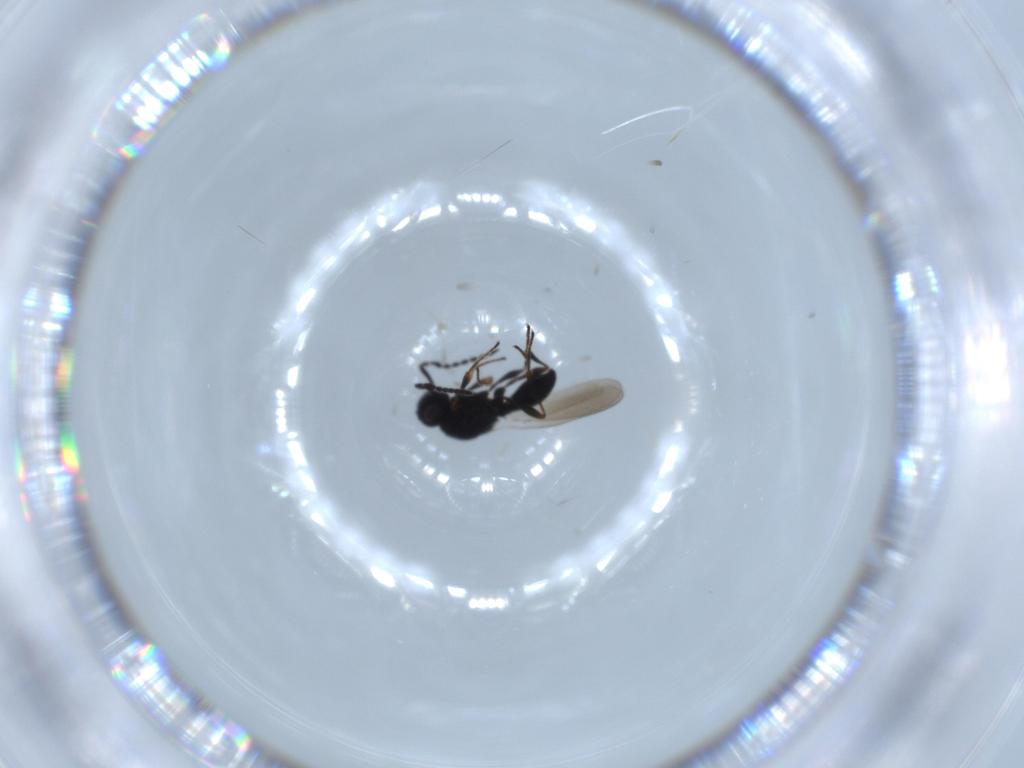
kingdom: Animalia
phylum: Arthropoda
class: Insecta
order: Hymenoptera
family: Platygastridae
